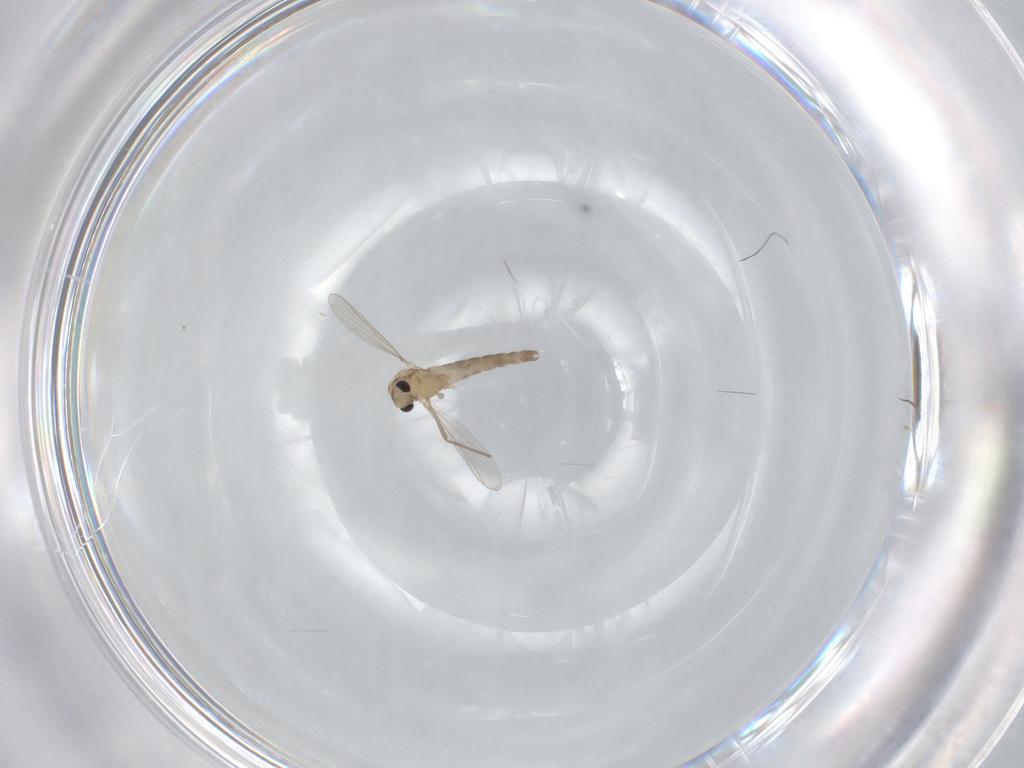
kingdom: Animalia
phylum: Arthropoda
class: Insecta
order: Diptera
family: Chironomidae
